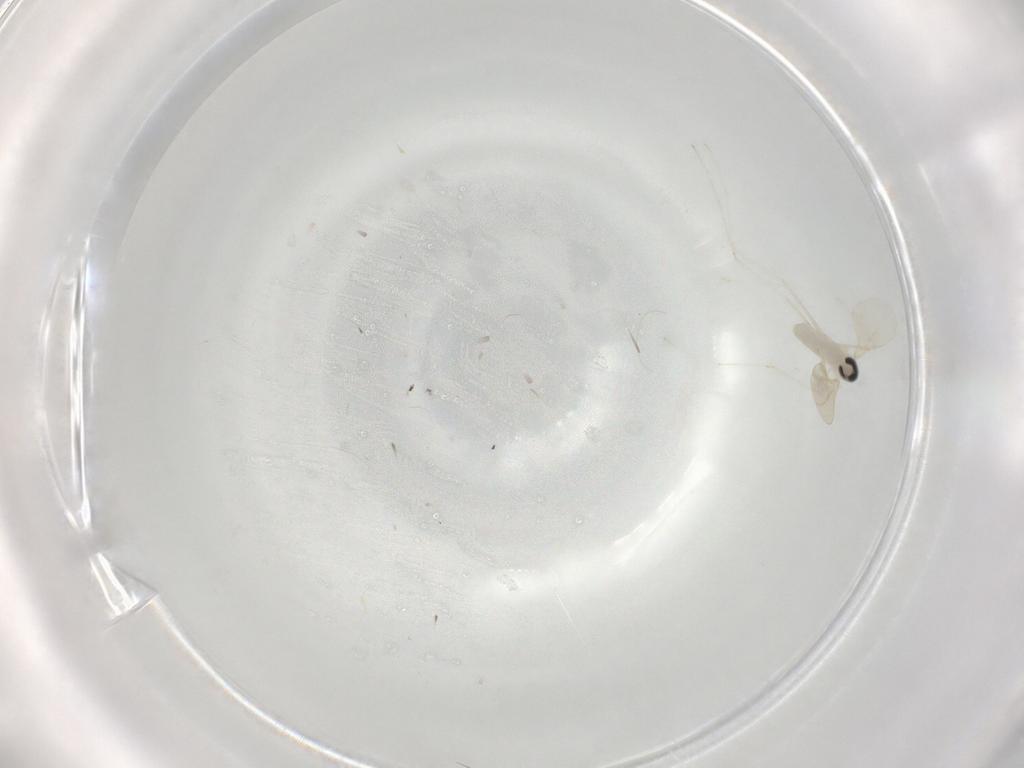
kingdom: Animalia
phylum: Arthropoda
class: Insecta
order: Diptera
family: Cecidomyiidae
